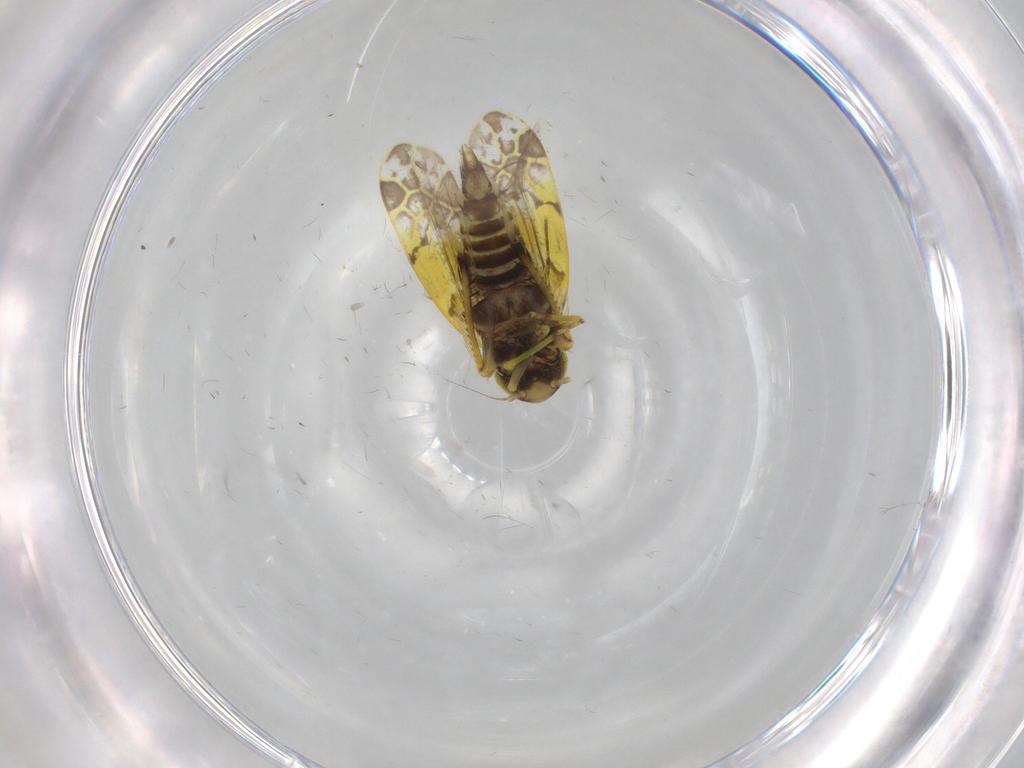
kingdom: Animalia
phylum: Arthropoda
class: Insecta
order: Hemiptera
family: Cicadellidae
